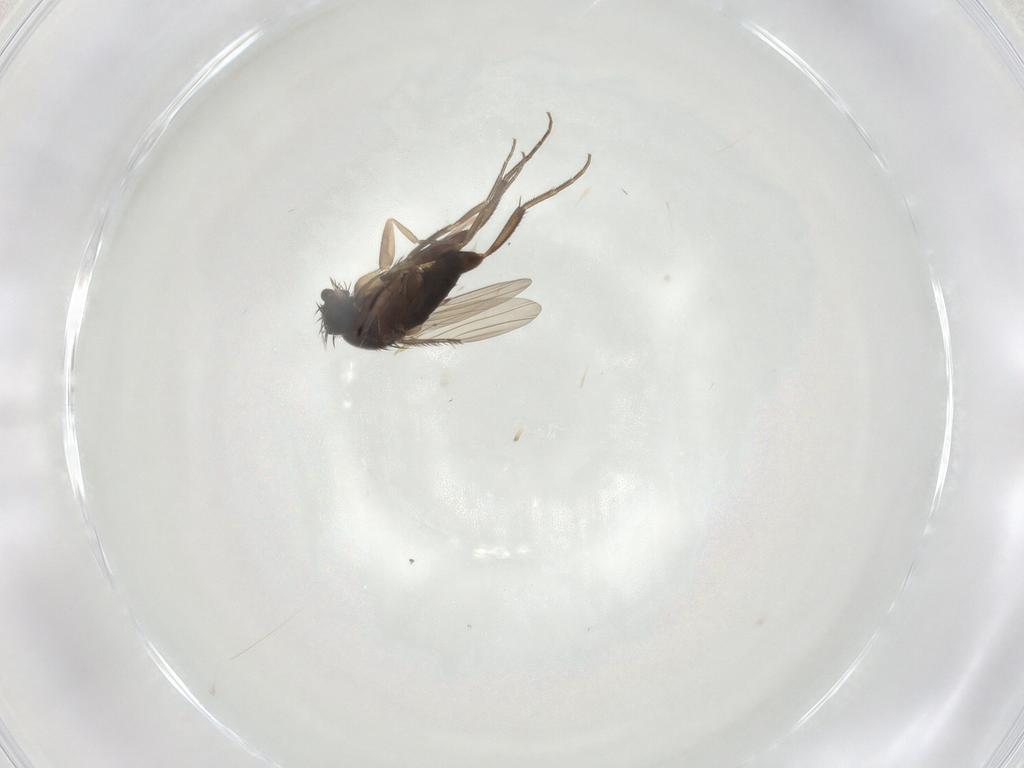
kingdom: Animalia
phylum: Arthropoda
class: Insecta
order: Diptera
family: Phoridae
